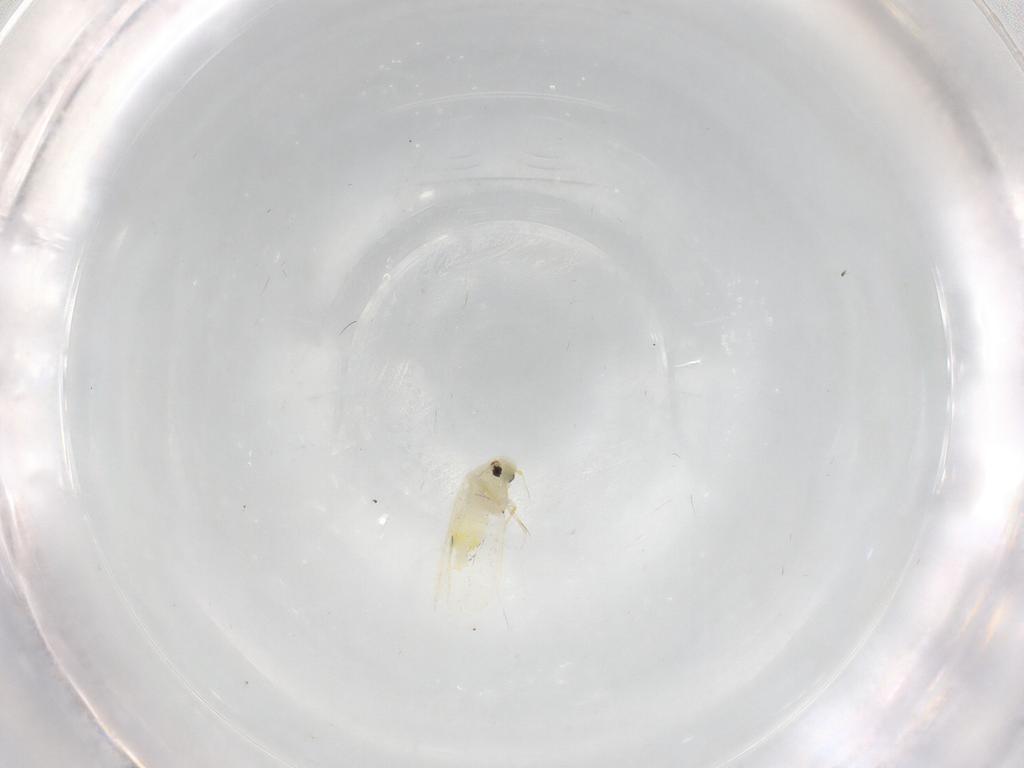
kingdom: Animalia
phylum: Arthropoda
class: Insecta
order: Hemiptera
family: Aleyrodidae
